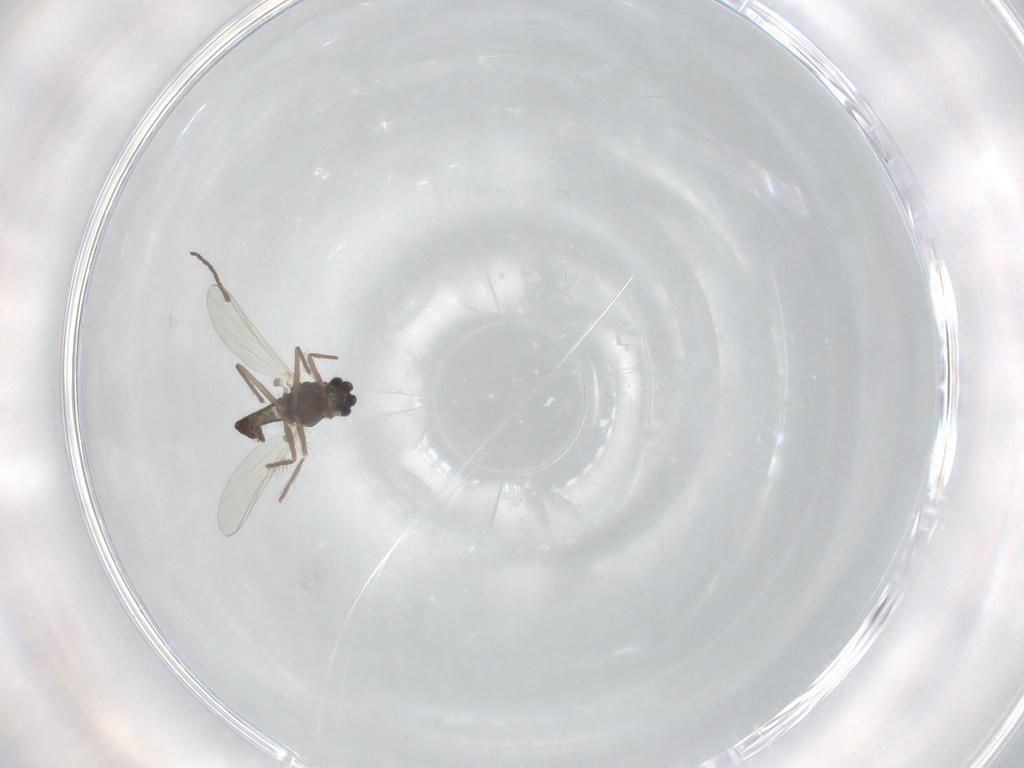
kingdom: Animalia
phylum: Arthropoda
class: Insecta
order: Diptera
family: Chironomidae
